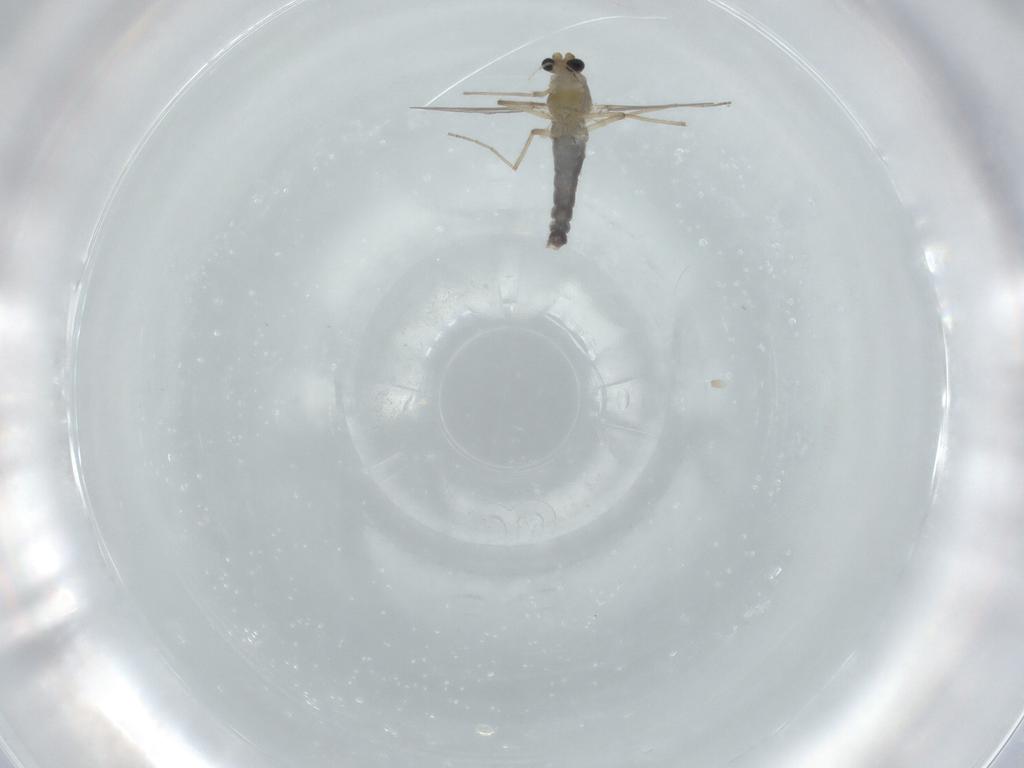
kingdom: Animalia
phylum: Arthropoda
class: Insecta
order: Diptera
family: Chironomidae
